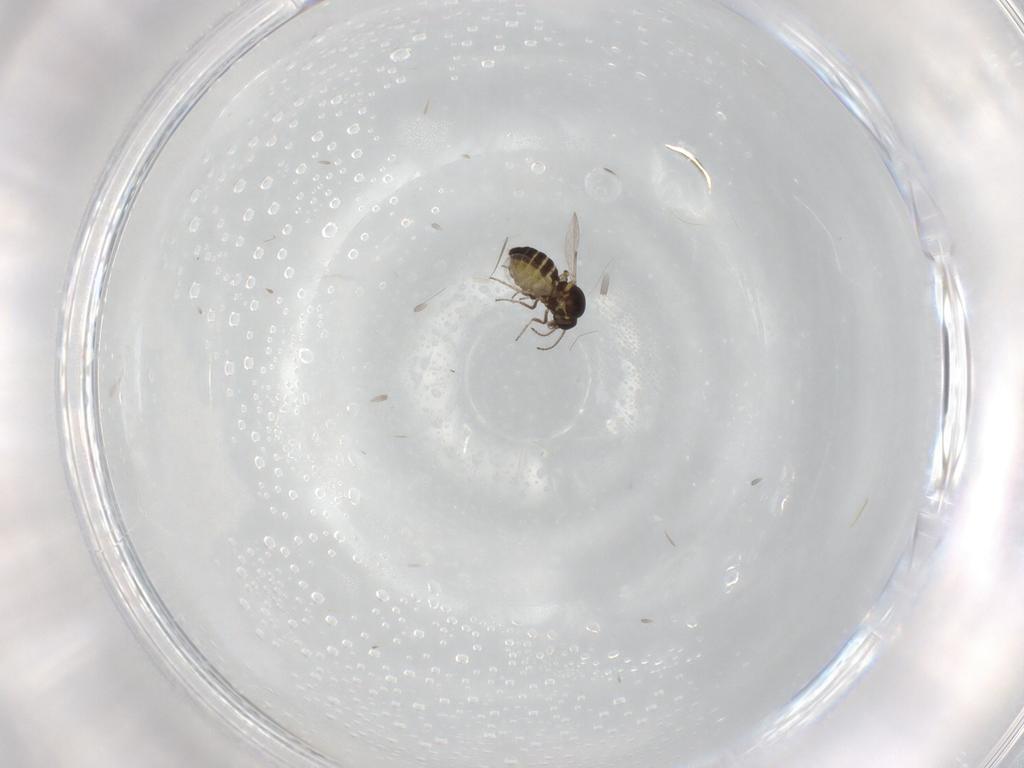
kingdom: Animalia
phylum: Arthropoda
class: Insecta
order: Diptera
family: Ceratopogonidae
